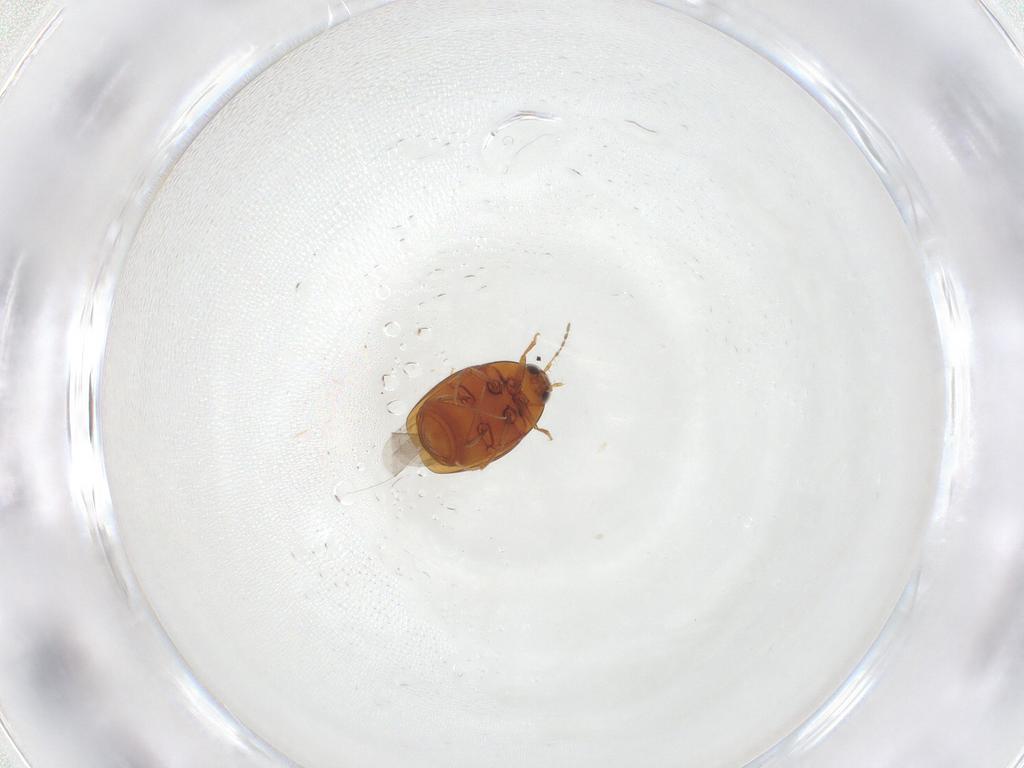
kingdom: Animalia
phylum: Arthropoda
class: Insecta
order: Coleoptera
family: Staphylinidae
